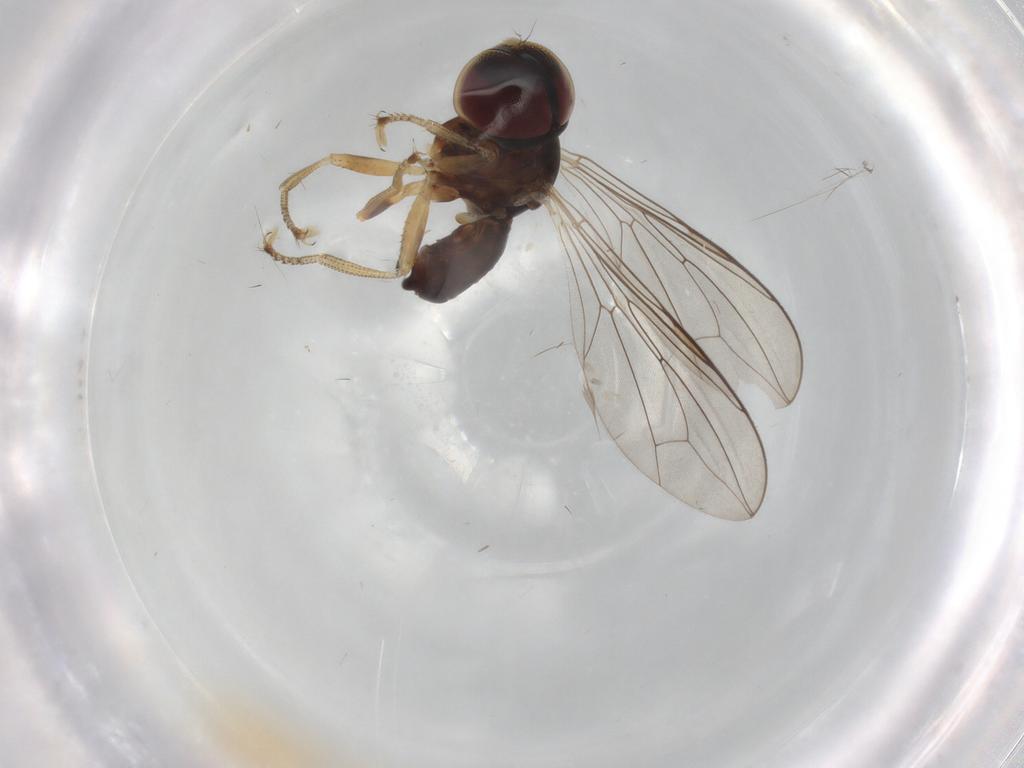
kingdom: Animalia
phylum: Arthropoda
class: Insecta
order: Diptera
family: Pipunculidae
